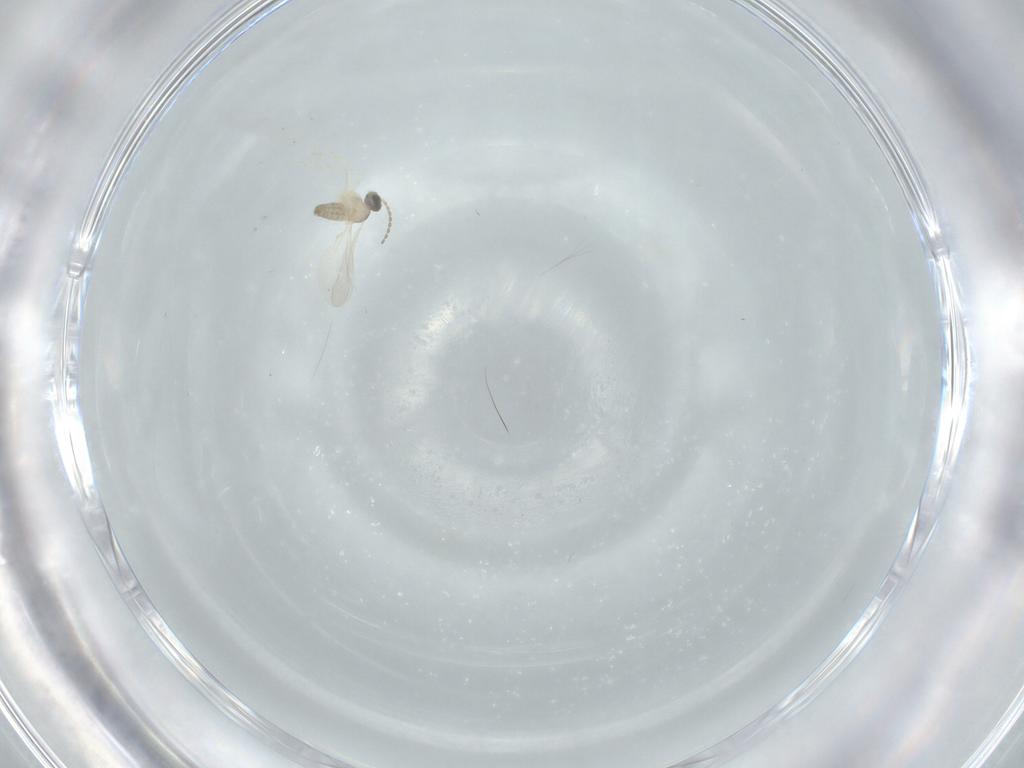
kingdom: Animalia
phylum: Arthropoda
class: Insecta
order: Diptera
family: Cecidomyiidae
